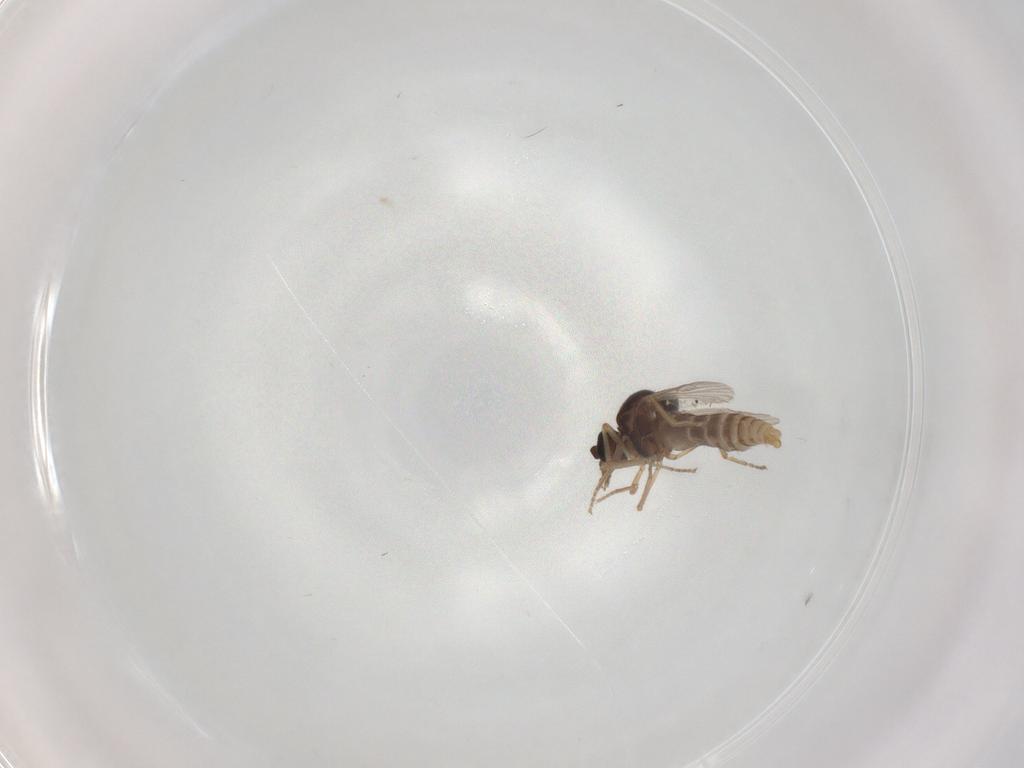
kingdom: Animalia
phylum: Arthropoda
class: Insecta
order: Diptera
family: Ceratopogonidae
